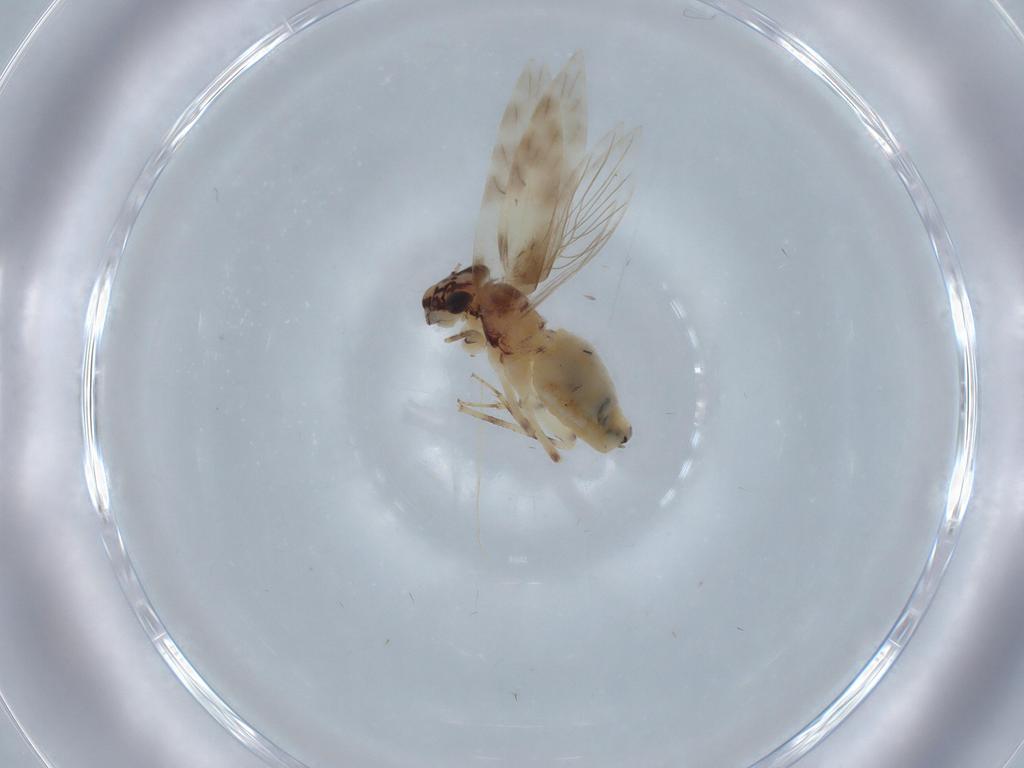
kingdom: Animalia
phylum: Arthropoda
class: Insecta
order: Psocodea
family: Lepidopsocidae
